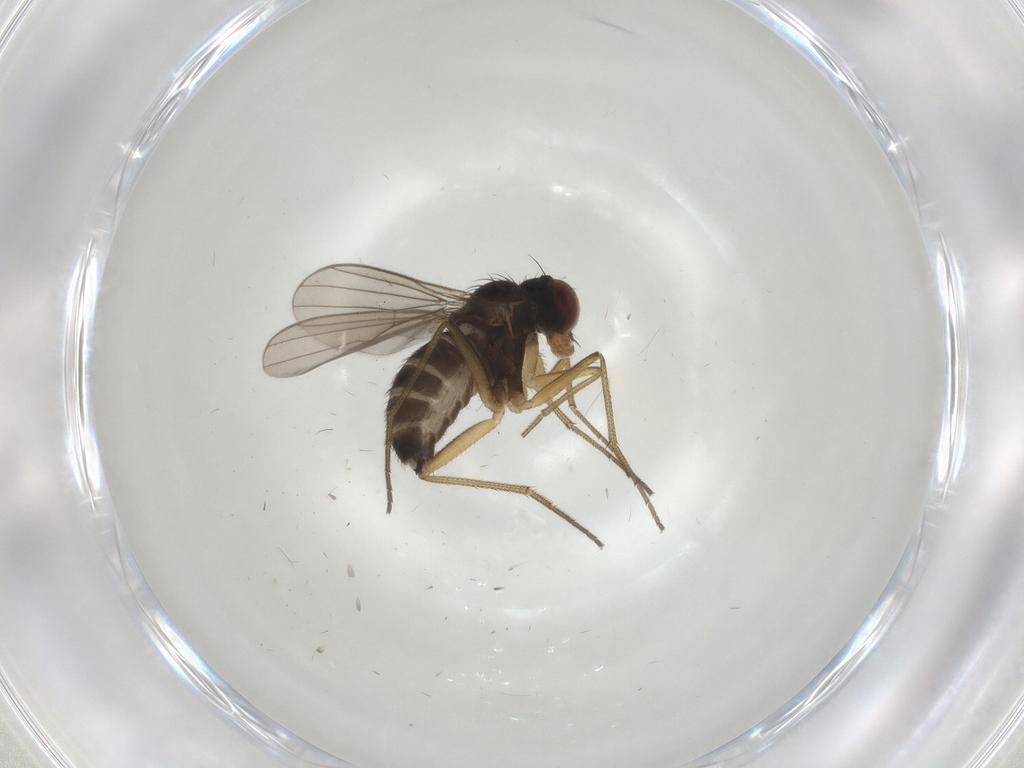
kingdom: Animalia
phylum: Arthropoda
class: Insecta
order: Diptera
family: Dolichopodidae
